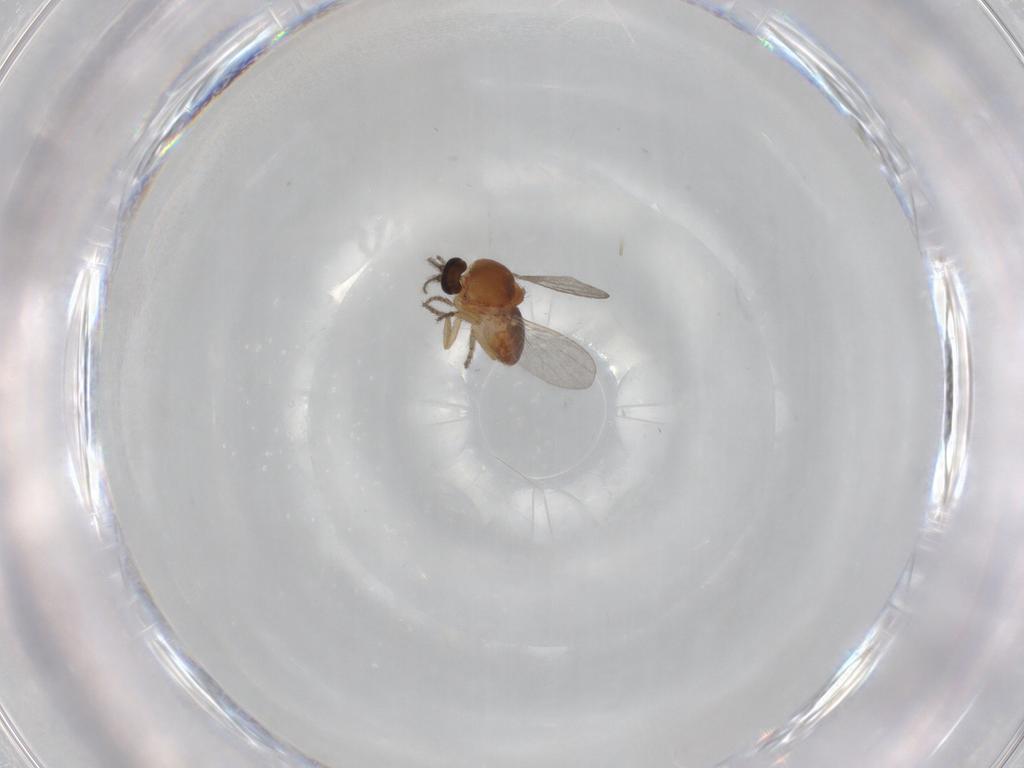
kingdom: Animalia
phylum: Arthropoda
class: Insecta
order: Diptera
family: Ceratopogonidae
